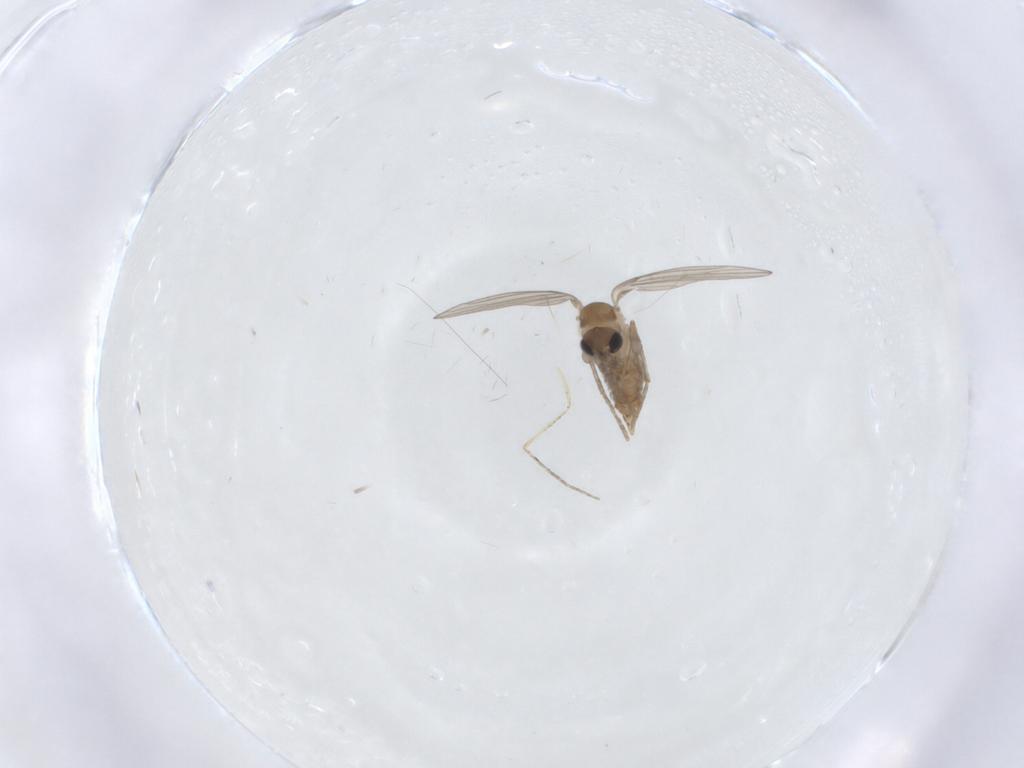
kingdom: Animalia
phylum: Arthropoda
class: Insecta
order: Diptera
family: Psychodidae
